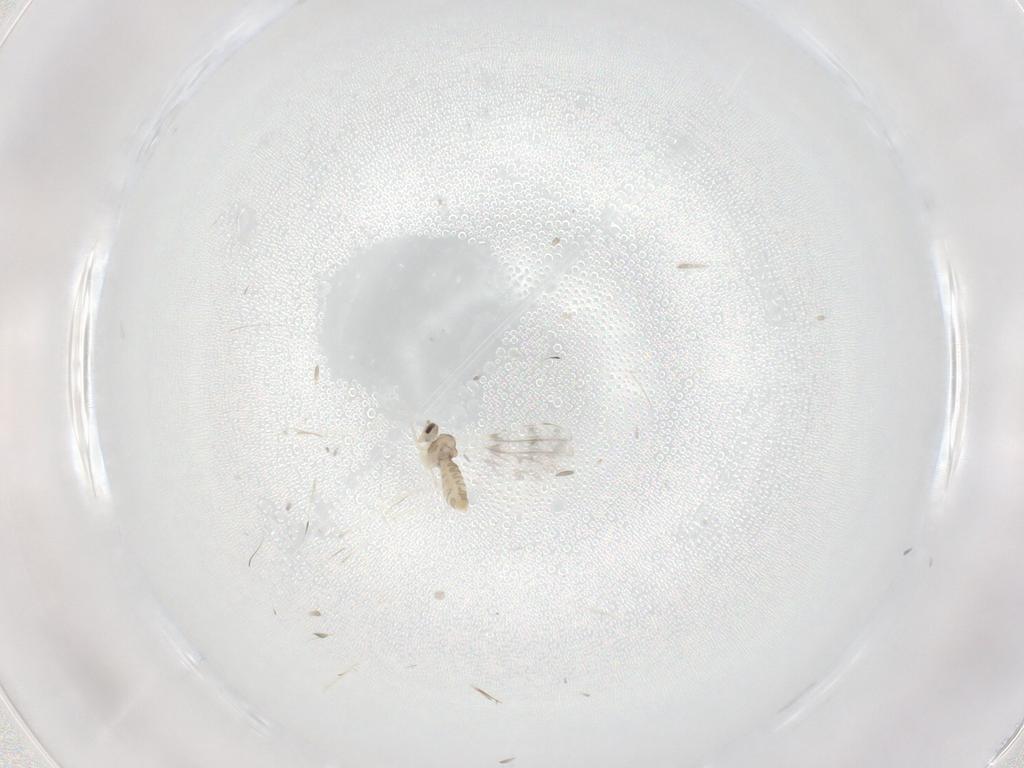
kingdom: Animalia
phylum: Arthropoda
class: Insecta
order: Diptera
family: Cecidomyiidae
